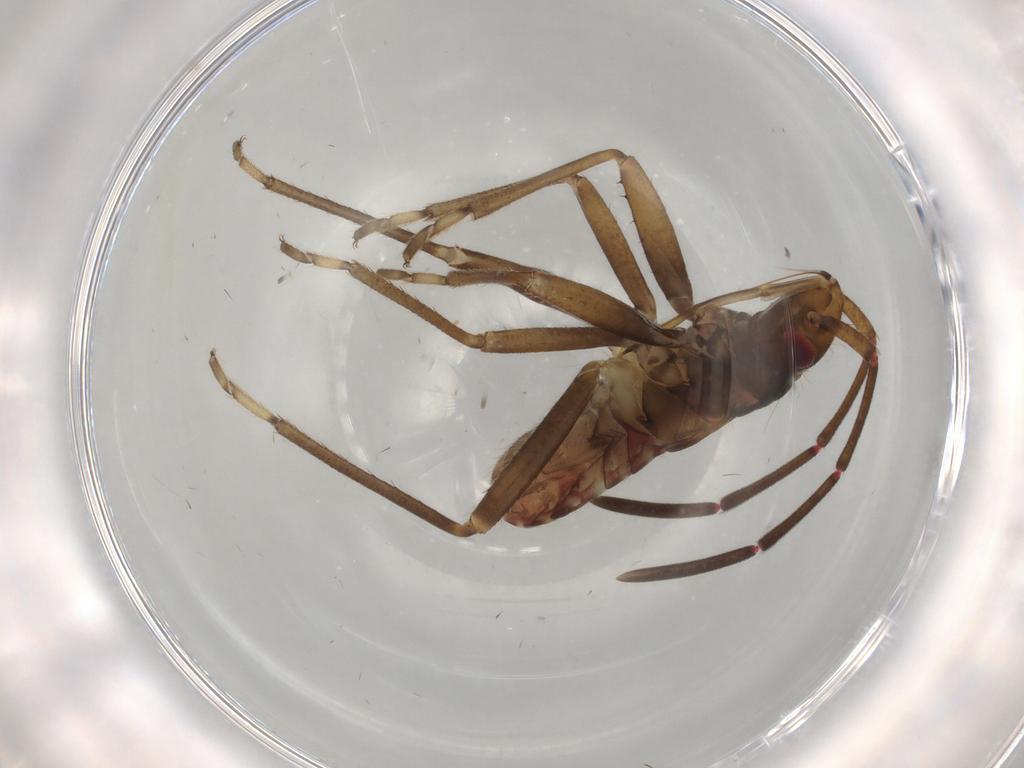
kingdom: Animalia
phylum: Arthropoda
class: Insecta
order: Hemiptera
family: Rhyparochromidae
